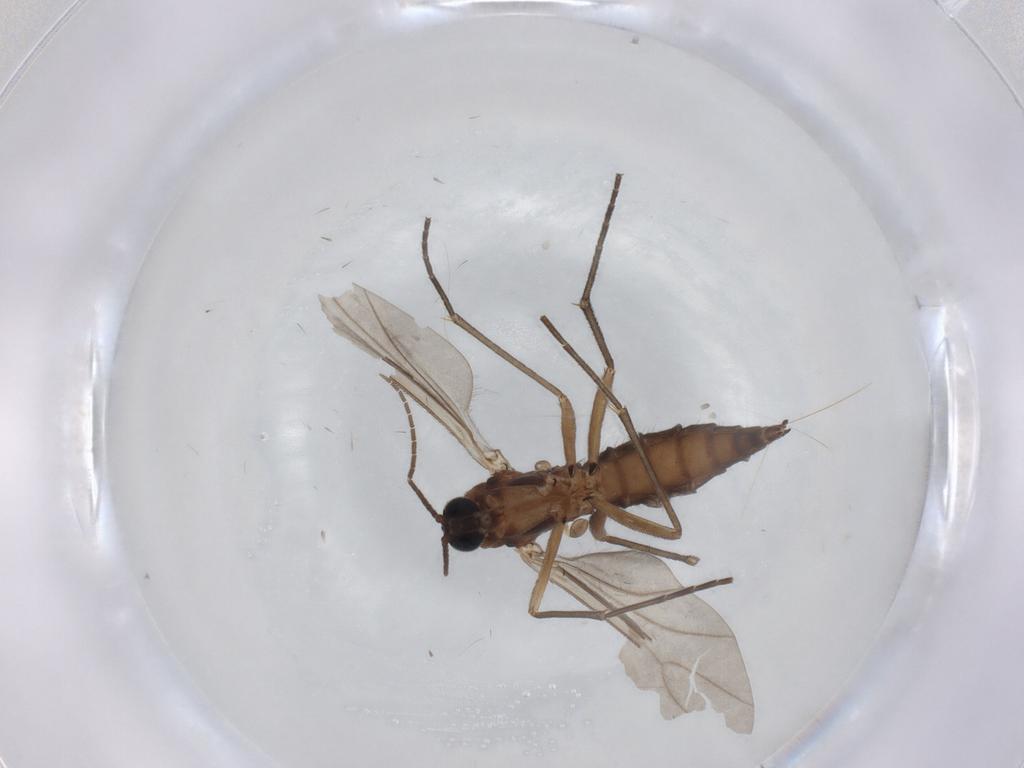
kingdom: Animalia
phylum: Arthropoda
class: Insecta
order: Diptera
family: Sciaridae
